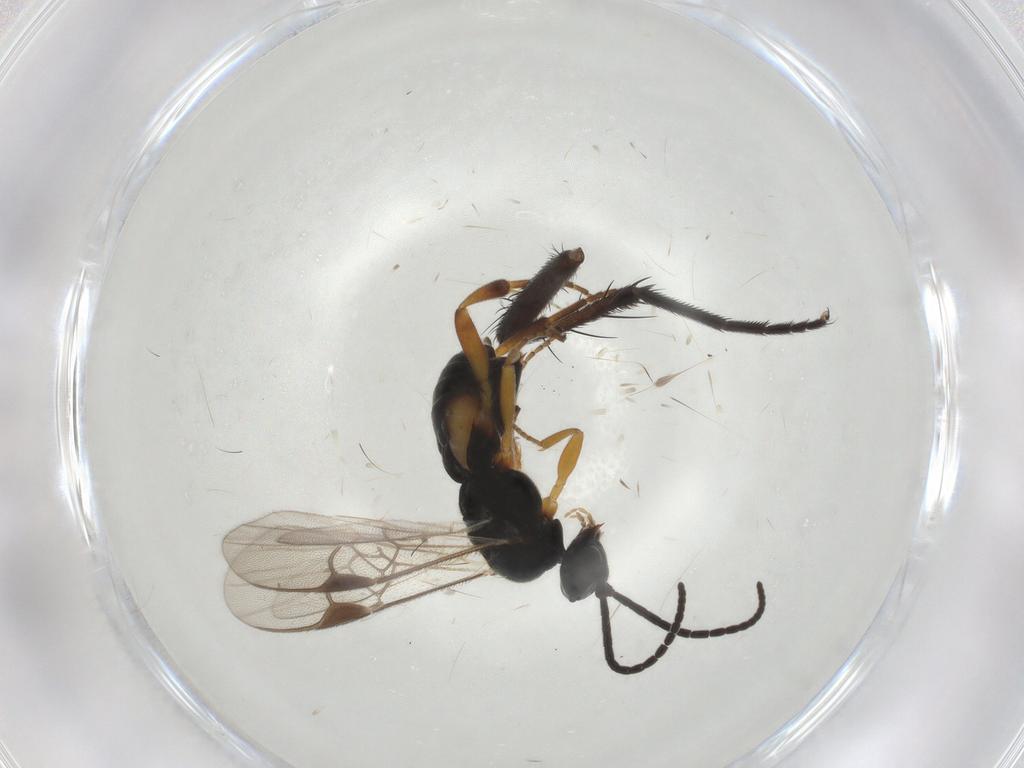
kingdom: Animalia
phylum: Arthropoda
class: Insecta
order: Hymenoptera
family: Braconidae
